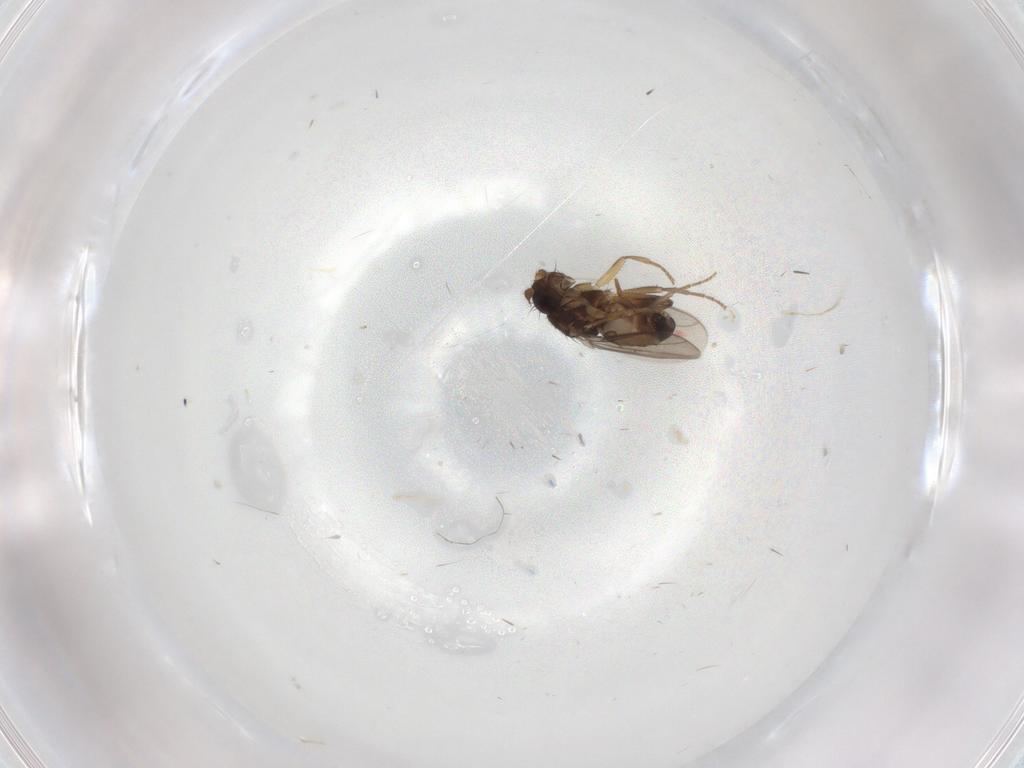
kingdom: Animalia
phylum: Arthropoda
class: Insecta
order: Diptera
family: Sphaeroceridae
